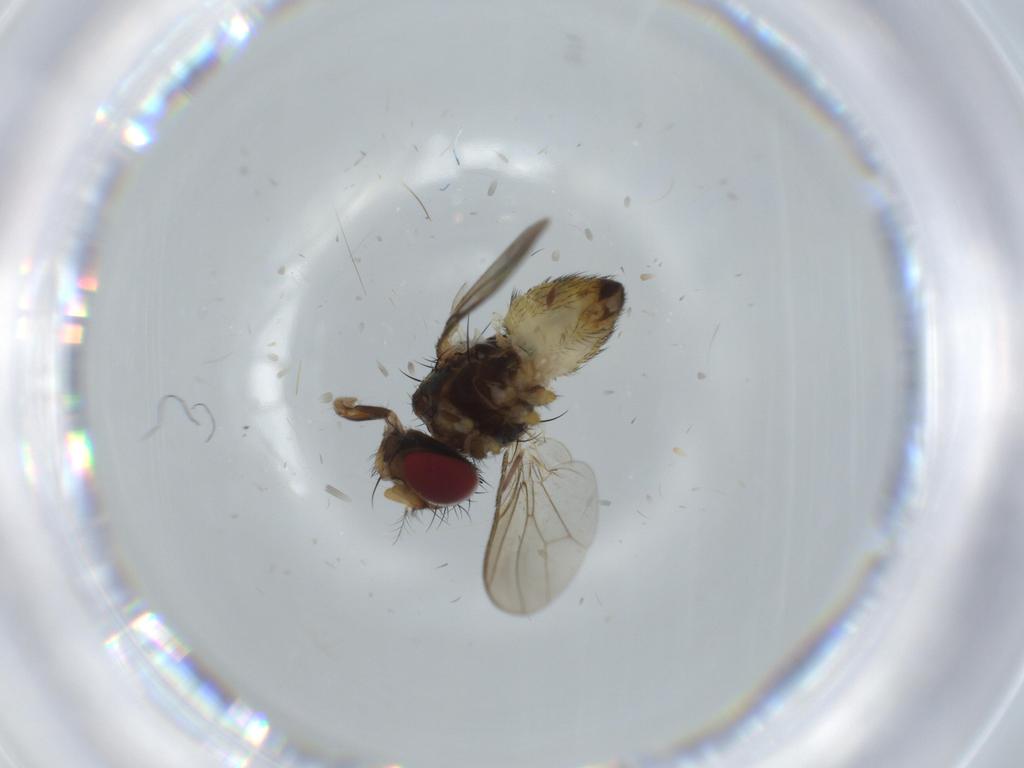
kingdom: Animalia
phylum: Arthropoda
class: Insecta
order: Diptera
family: Anthomyiidae
